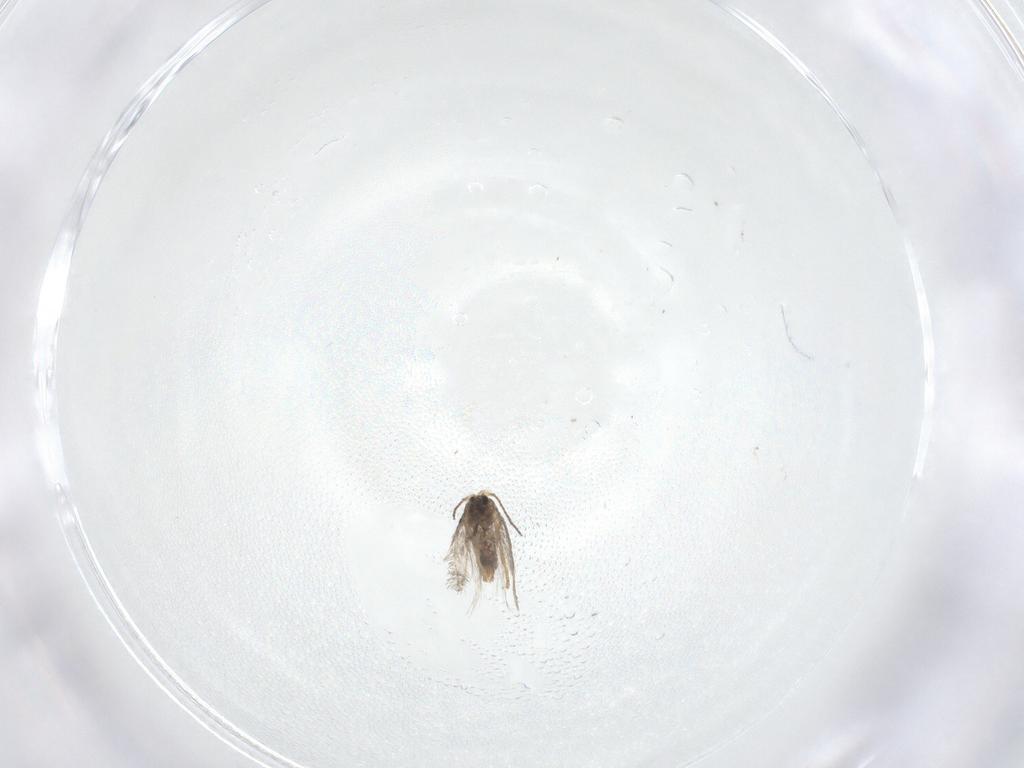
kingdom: Animalia
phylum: Arthropoda
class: Insecta
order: Lepidoptera
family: Nepticulidae
